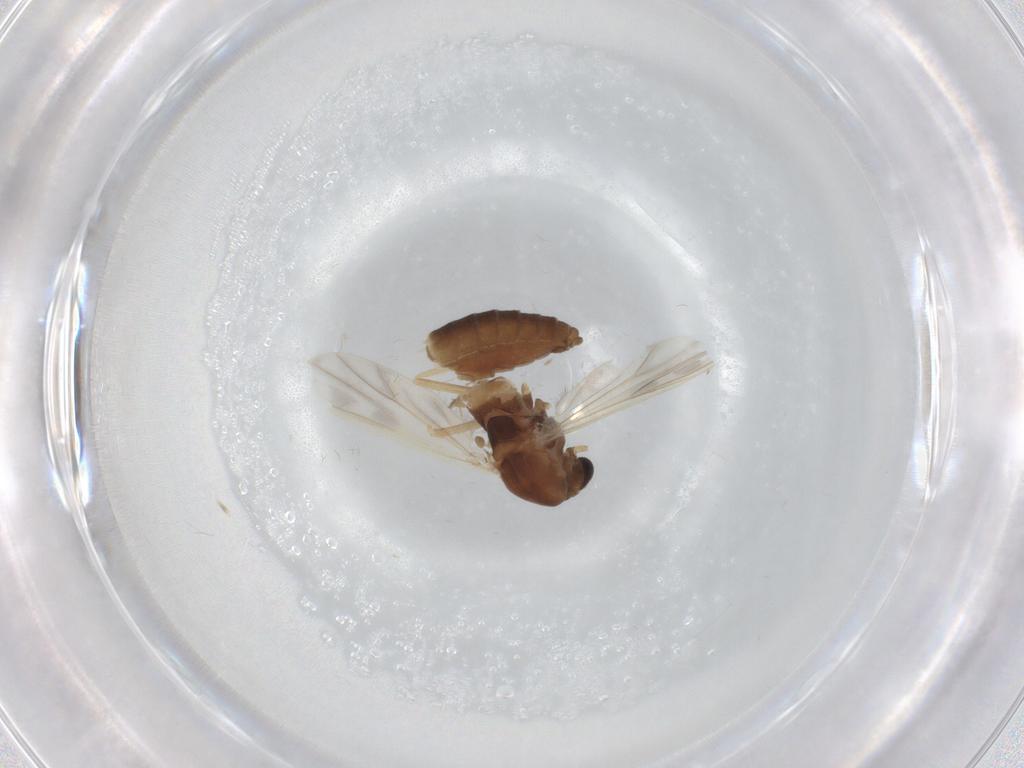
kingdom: Animalia
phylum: Arthropoda
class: Insecta
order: Diptera
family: Chironomidae
